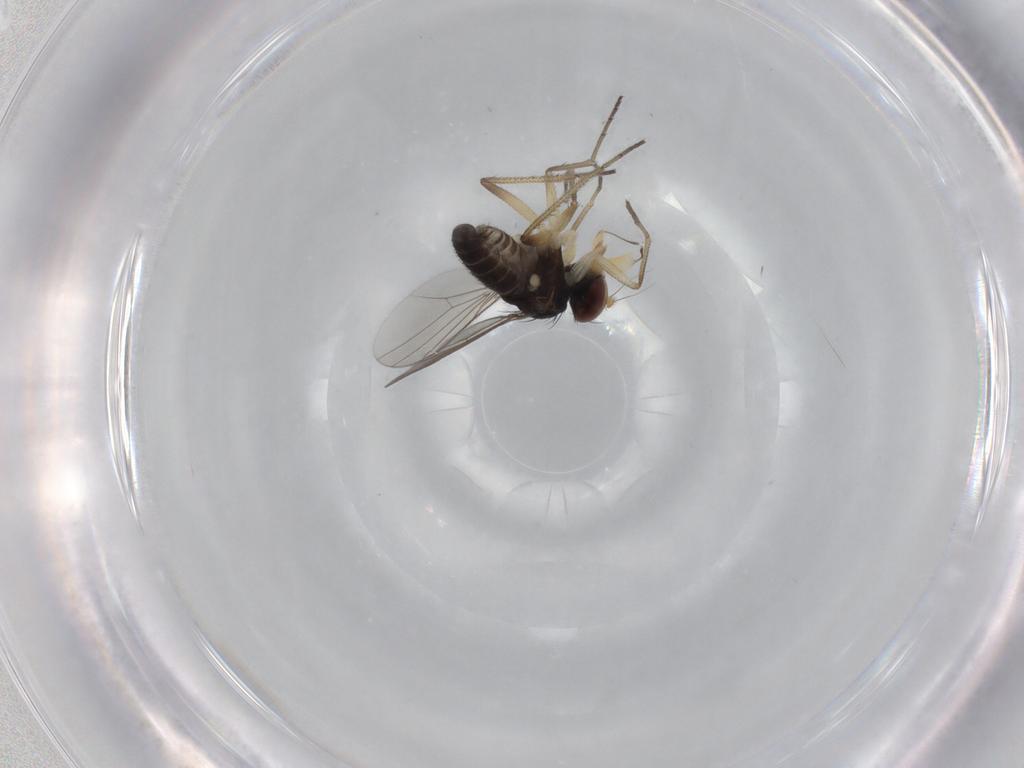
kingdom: Animalia
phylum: Arthropoda
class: Insecta
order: Diptera
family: Dolichopodidae
